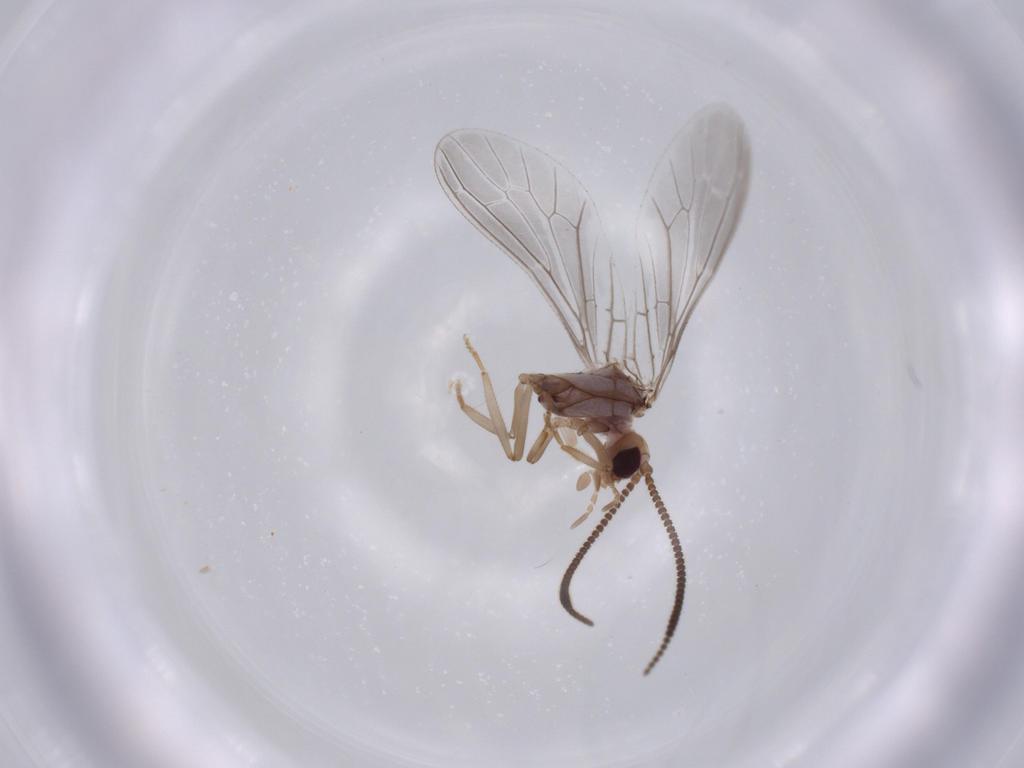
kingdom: Animalia
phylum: Arthropoda
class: Insecta
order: Neuroptera
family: Coniopterygidae
